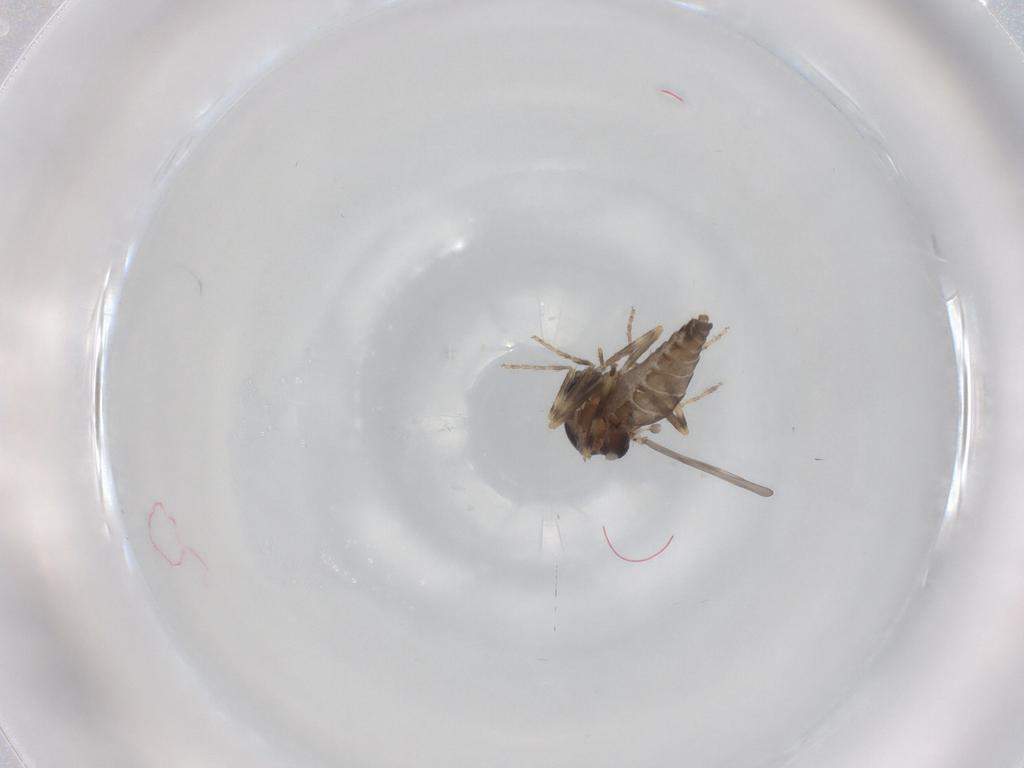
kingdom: Animalia
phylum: Arthropoda
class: Insecta
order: Diptera
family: Ceratopogonidae
